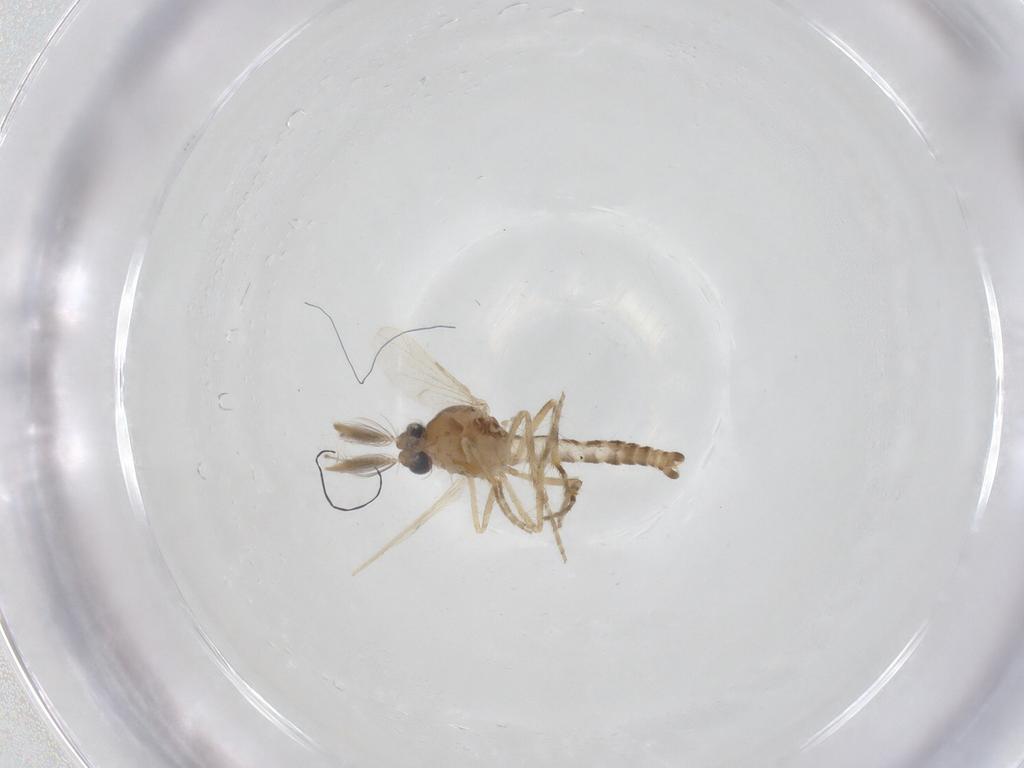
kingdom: Animalia
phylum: Arthropoda
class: Insecta
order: Diptera
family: Ceratopogonidae
